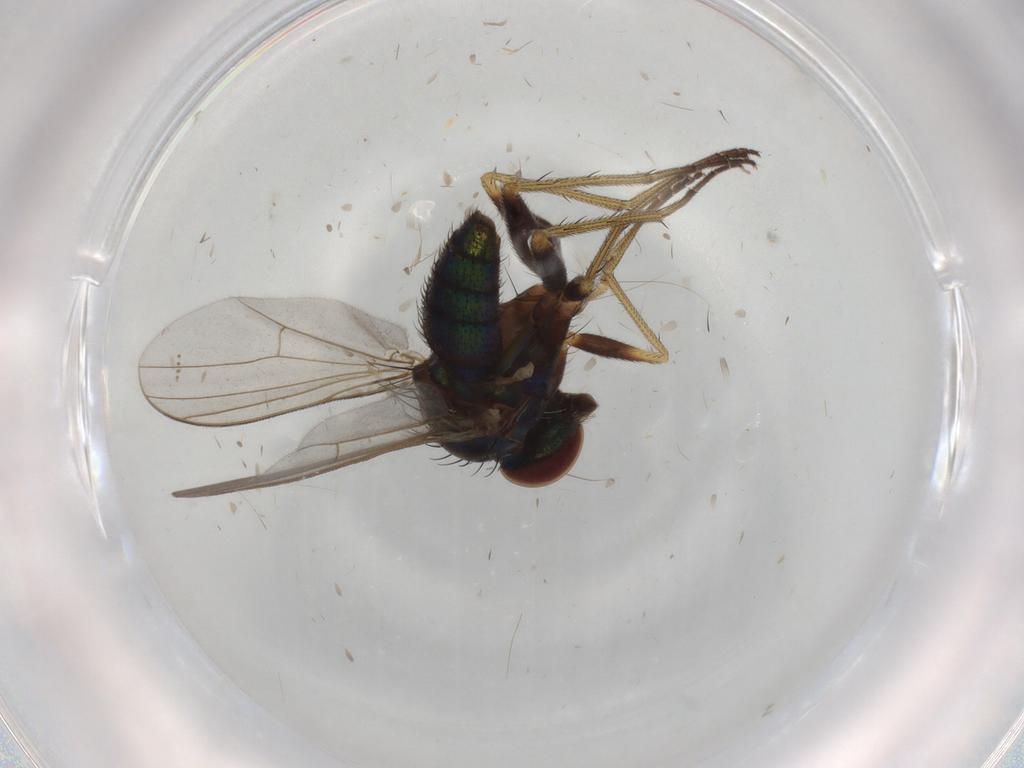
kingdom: Animalia
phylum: Arthropoda
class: Insecta
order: Diptera
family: Dolichopodidae
